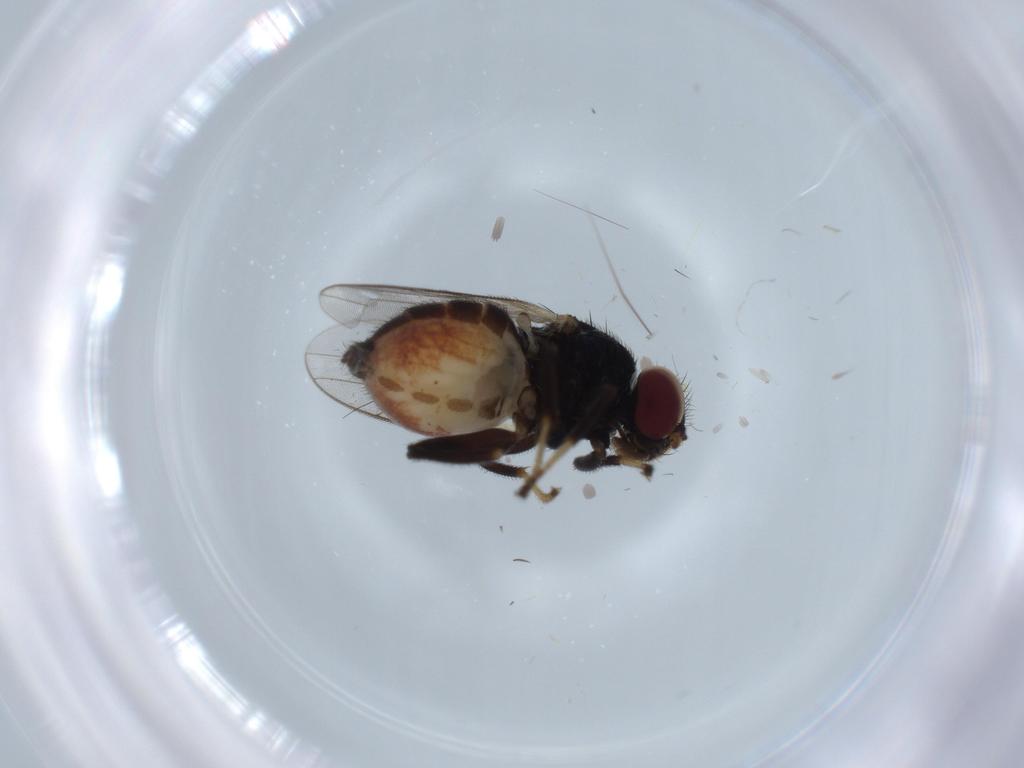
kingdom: Animalia
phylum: Arthropoda
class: Insecta
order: Diptera
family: Chloropidae
